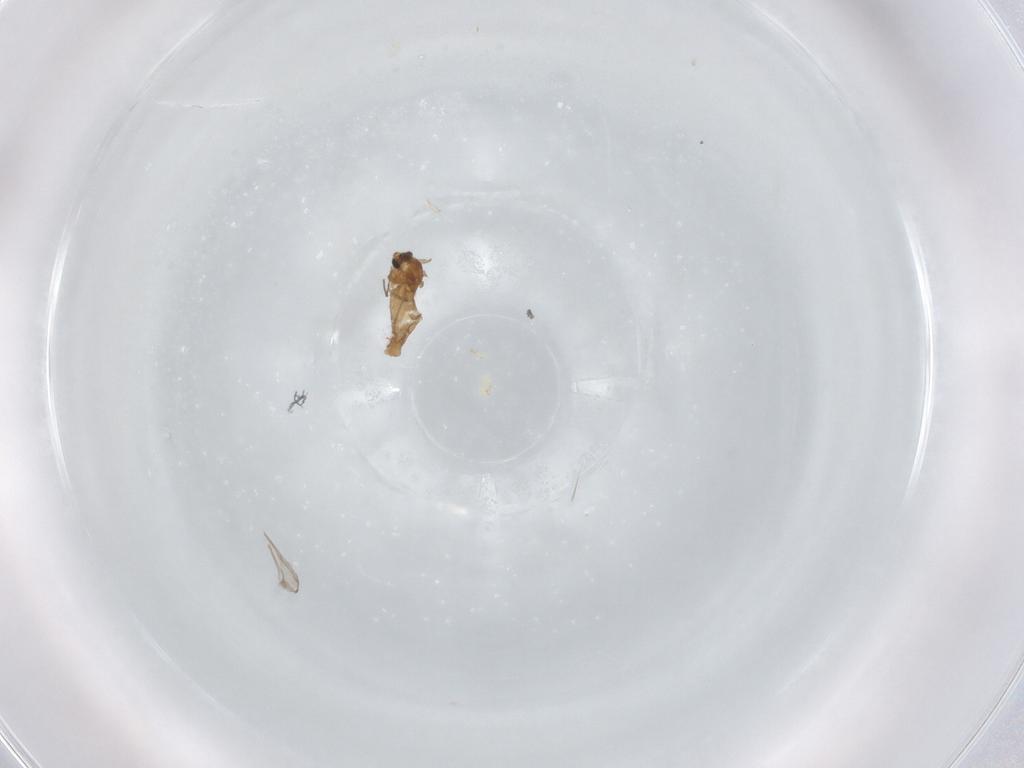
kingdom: Animalia
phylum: Arthropoda
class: Insecta
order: Diptera
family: Chironomidae
